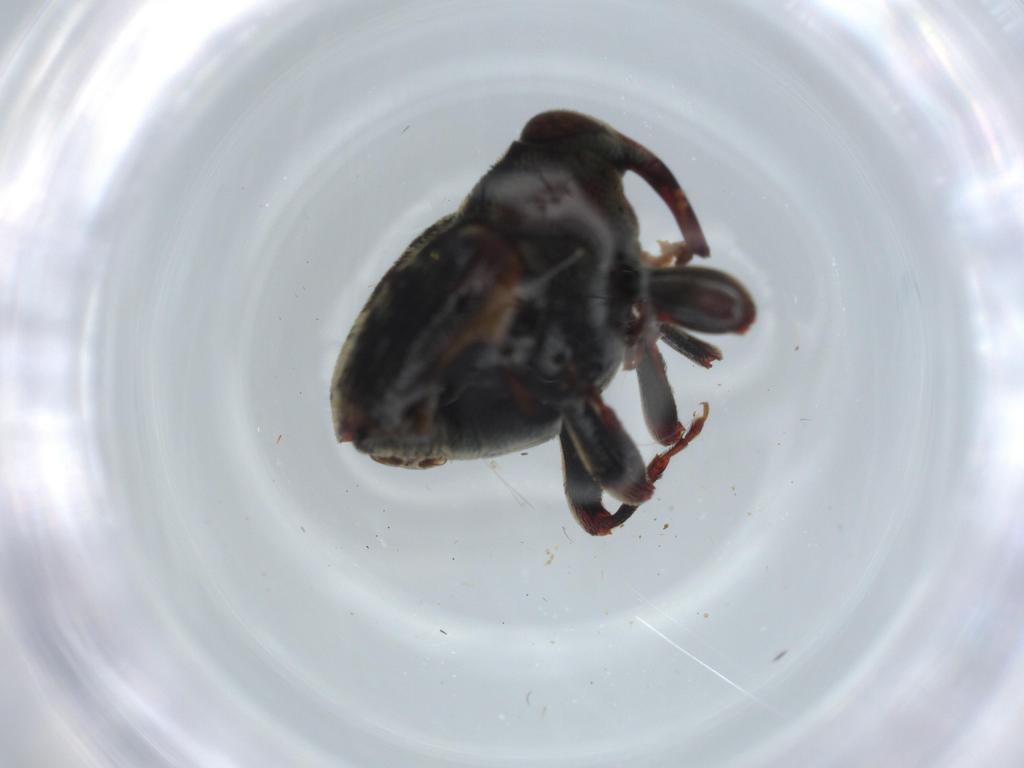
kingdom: Animalia
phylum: Arthropoda
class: Insecta
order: Coleoptera
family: Curculionidae
